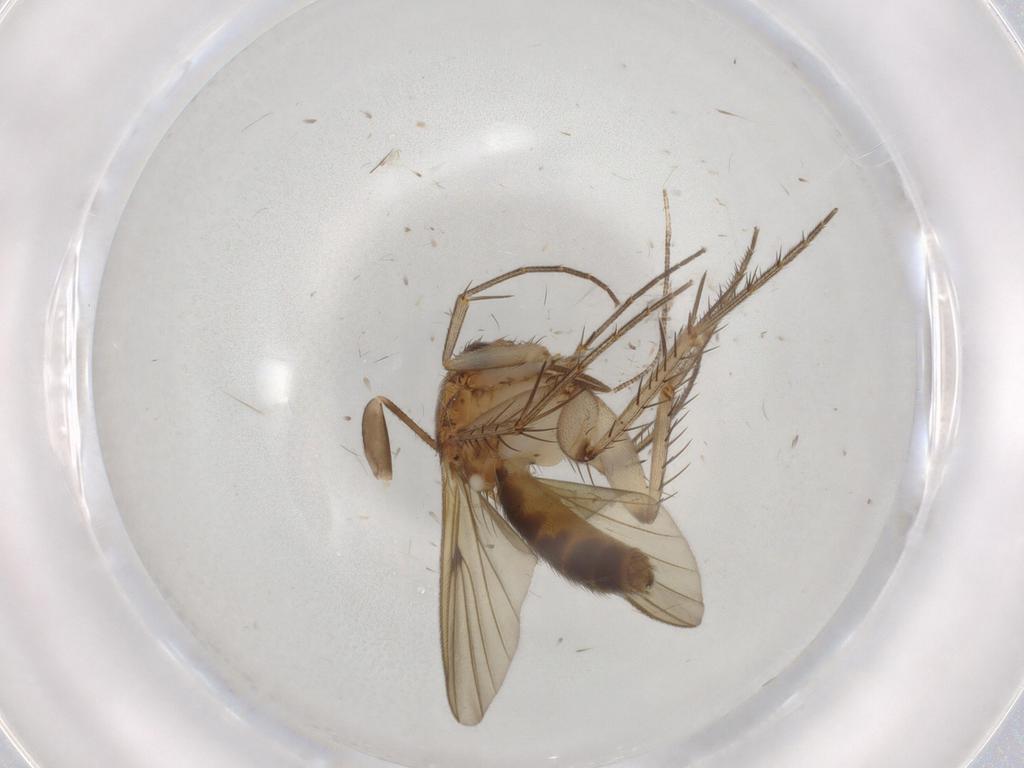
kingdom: Animalia
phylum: Arthropoda
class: Insecta
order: Diptera
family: Mycetophilidae
